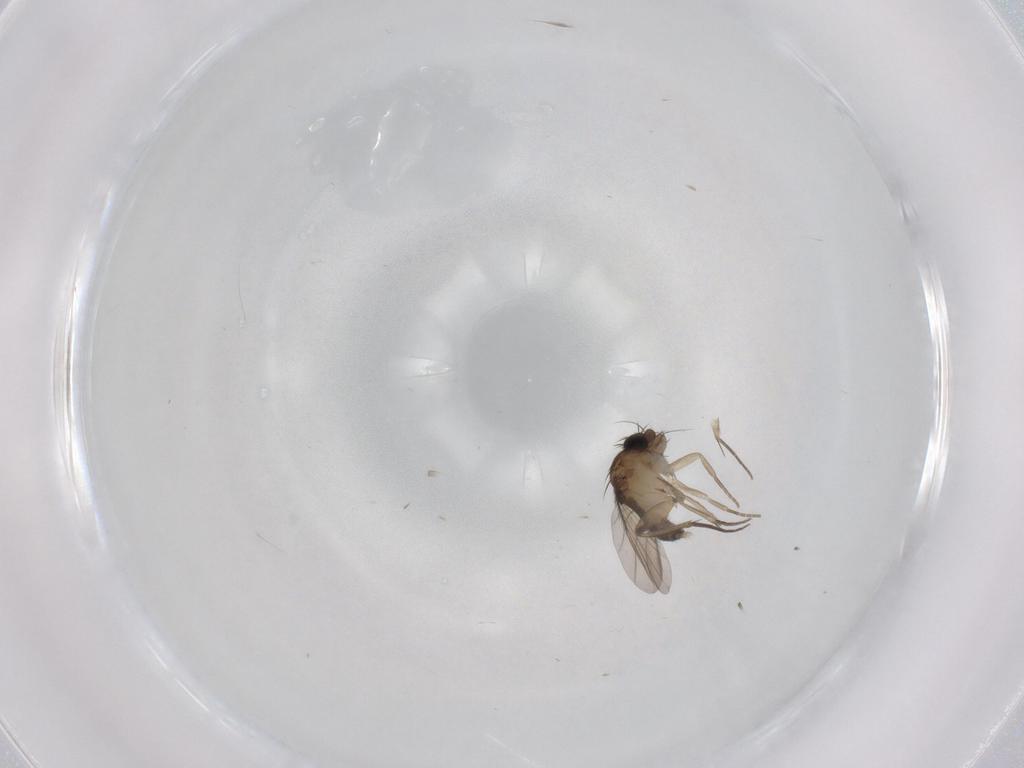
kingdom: Animalia
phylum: Arthropoda
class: Insecta
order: Diptera
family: Phoridae
